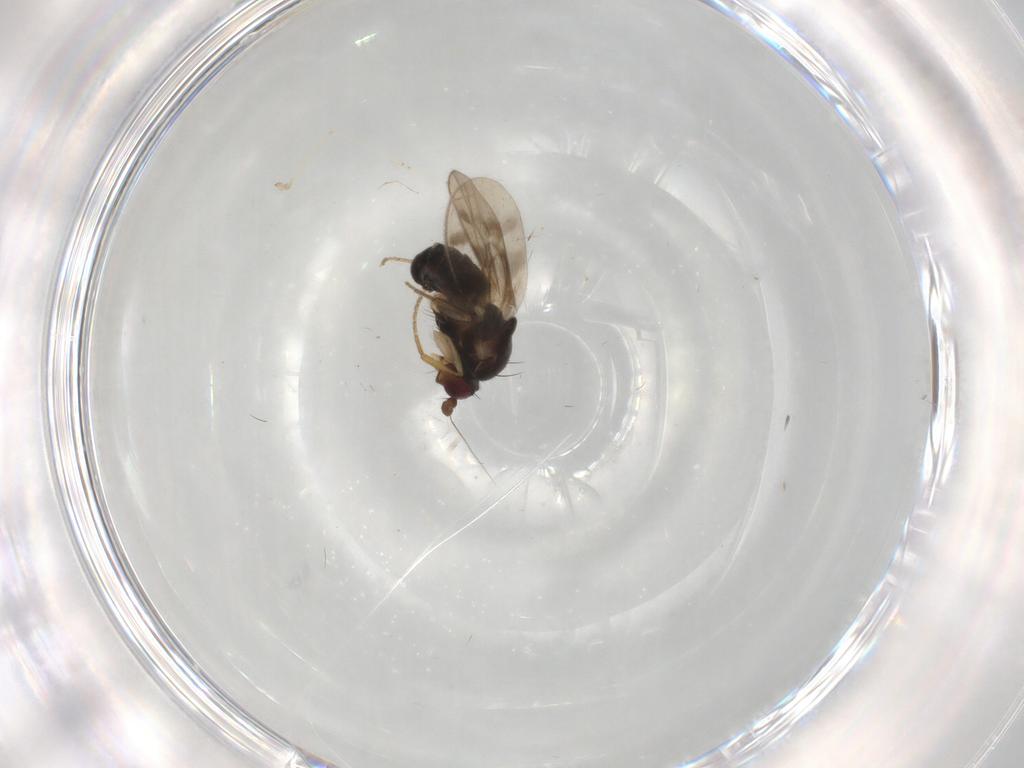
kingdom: Animalia
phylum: Arthropoda
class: Insecta
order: Diptera
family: Sphaeroceridae
